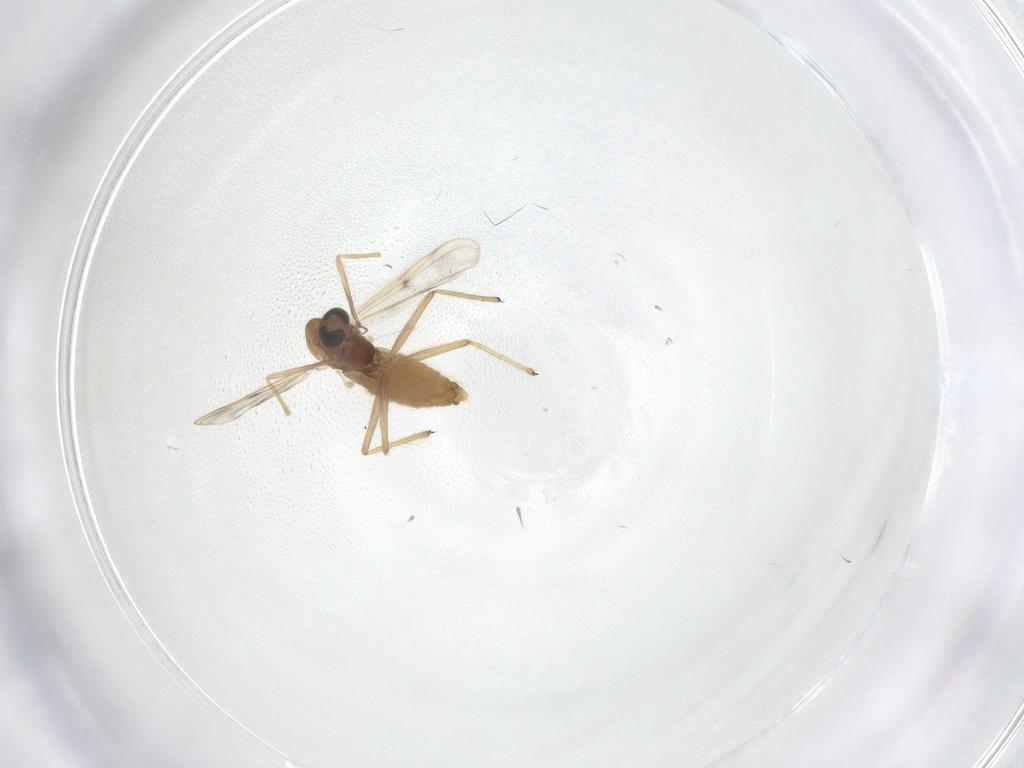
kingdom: Animalia
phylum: Arthropoda
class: Insecta
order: Diptera
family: Chironomidae
